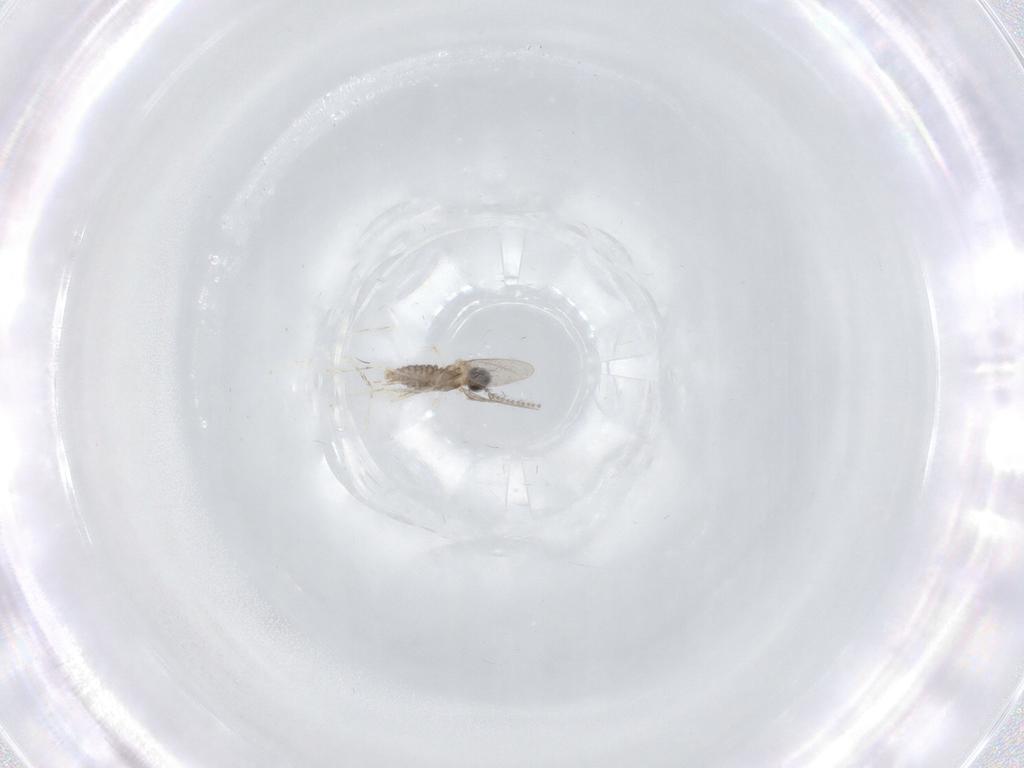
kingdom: Animalia
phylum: Arthropoda
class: Insecta
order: Diptera
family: Cecidomyiidae
